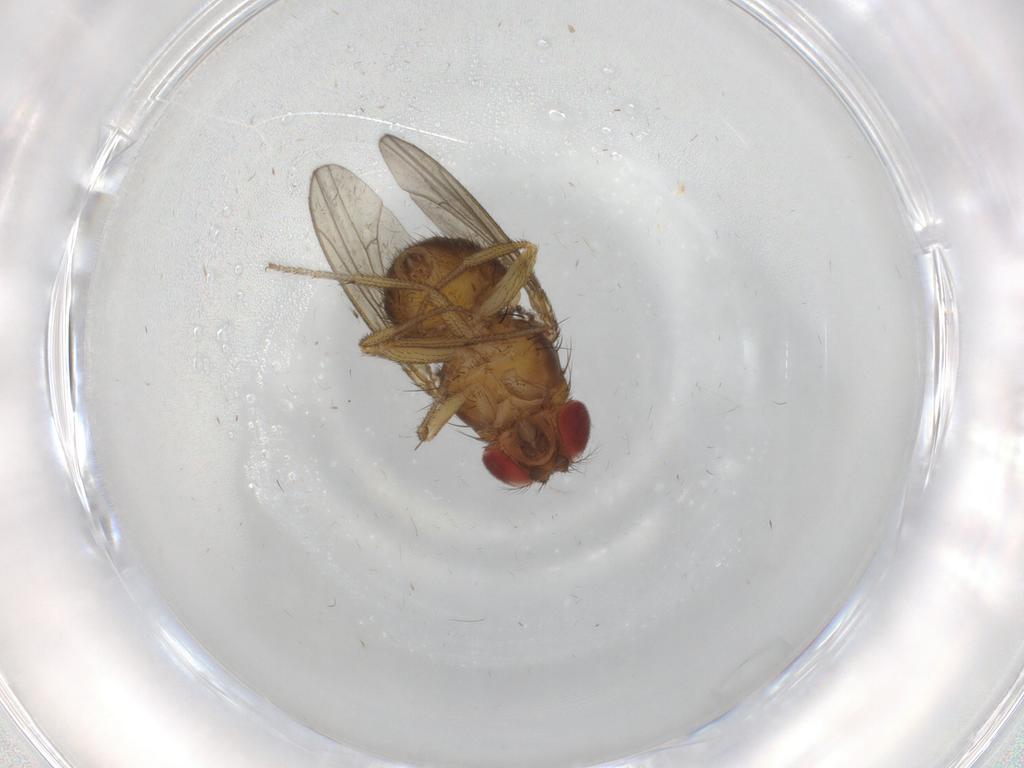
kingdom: Animalia
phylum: Arthropoda
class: Insecta
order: Diptera
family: Drosophilidae
